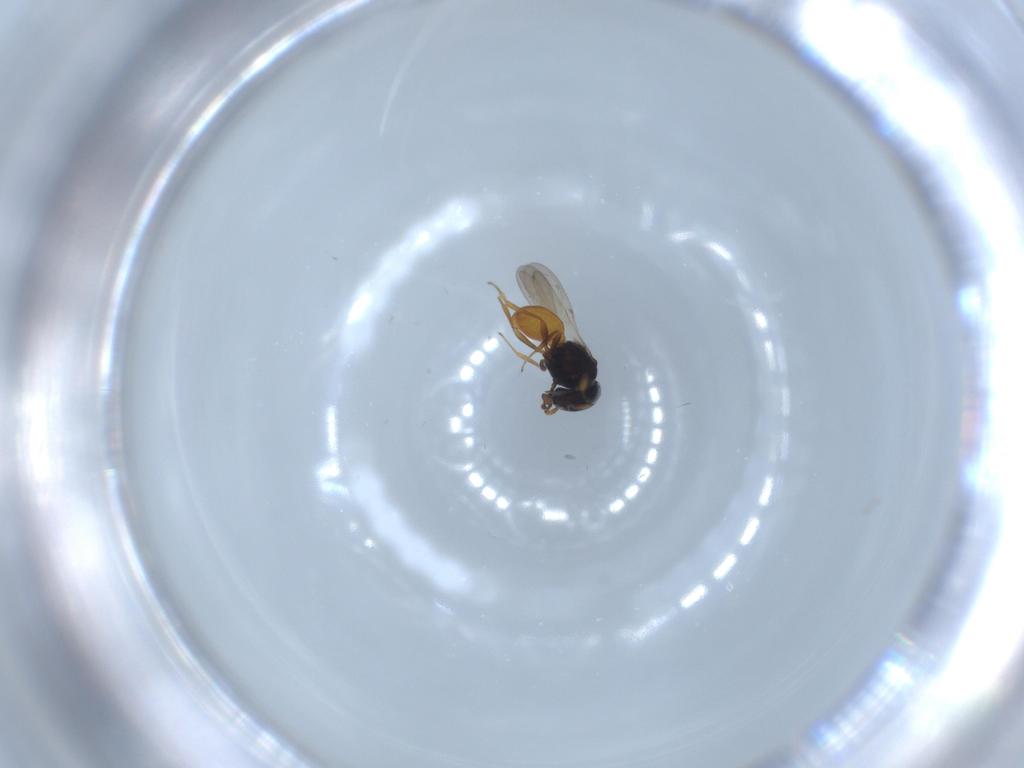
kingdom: Animalia
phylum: Arthropoda
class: Insecta
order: Hymenoptera
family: Scelionidae
